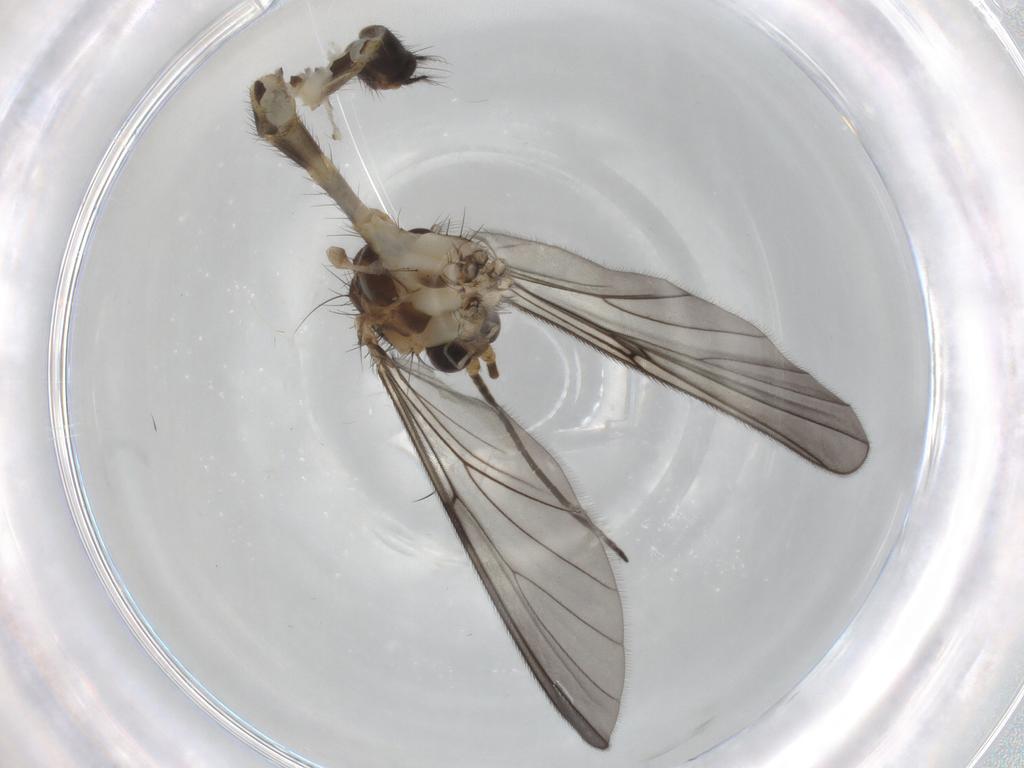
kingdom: Animalia
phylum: Arthropoda
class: Insecta
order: Diptera
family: Mycetophilidae
